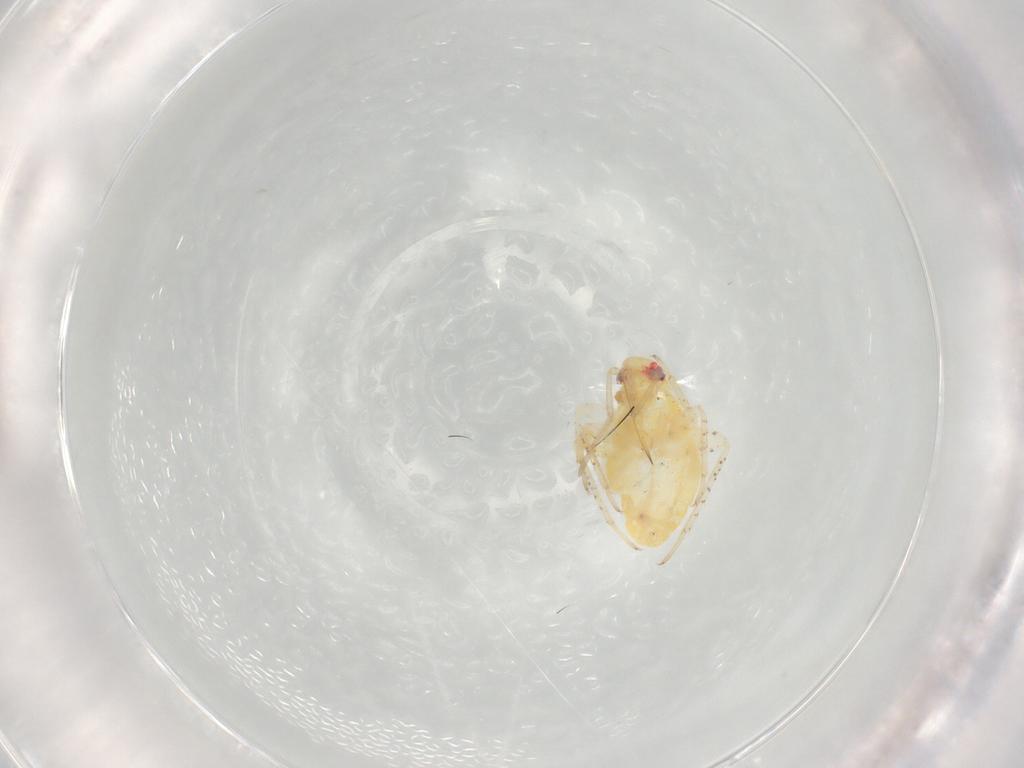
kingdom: Animalia
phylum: Arthropoda
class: Insecta
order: Hemiptera
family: Miridae
